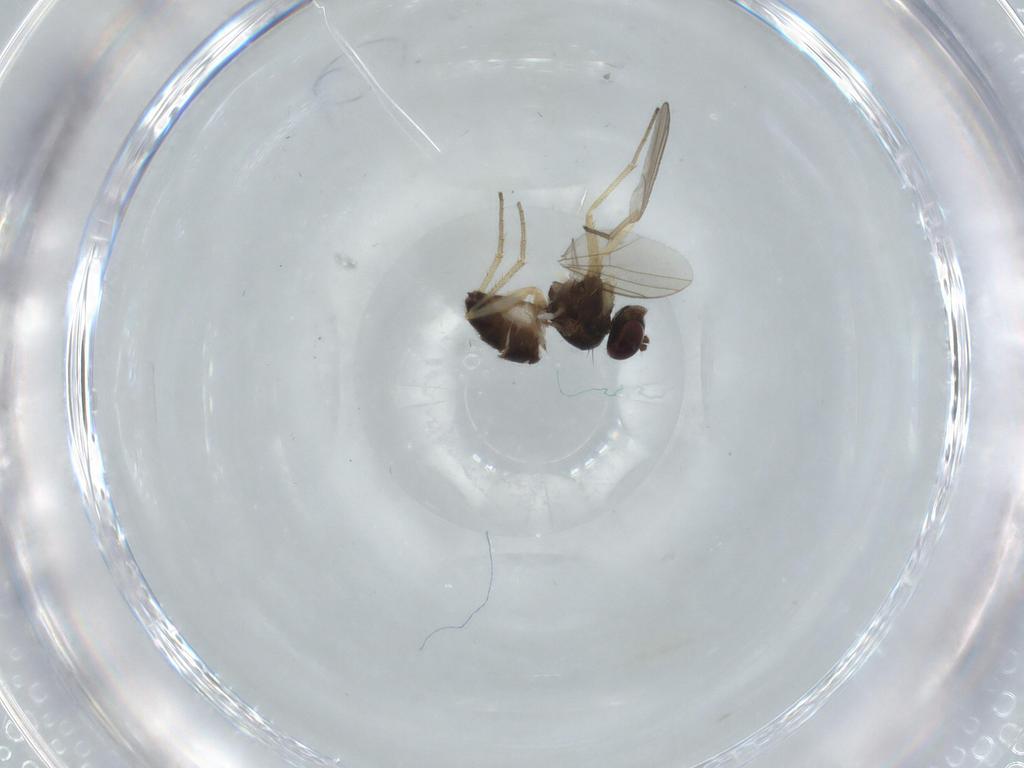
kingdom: Animalia
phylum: Arthropoda
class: Insecta
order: Diptera
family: Dolichopodidae
